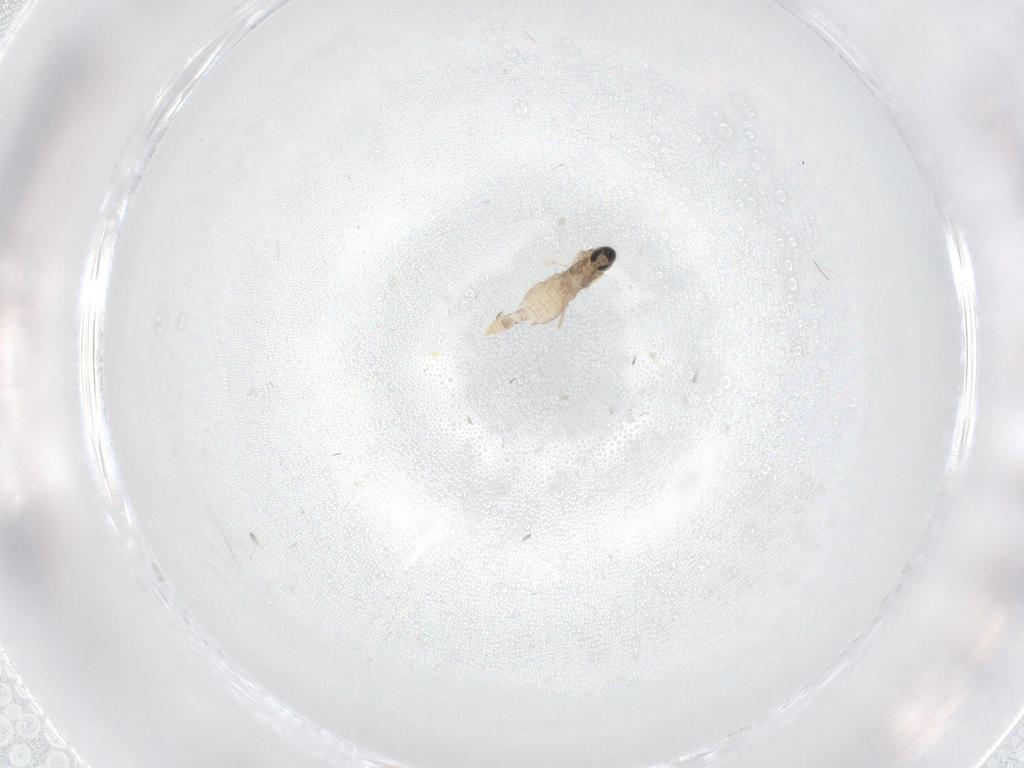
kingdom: Animalia
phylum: Arthropoda
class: Insecta
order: Diptera
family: Cecidomyiidae
